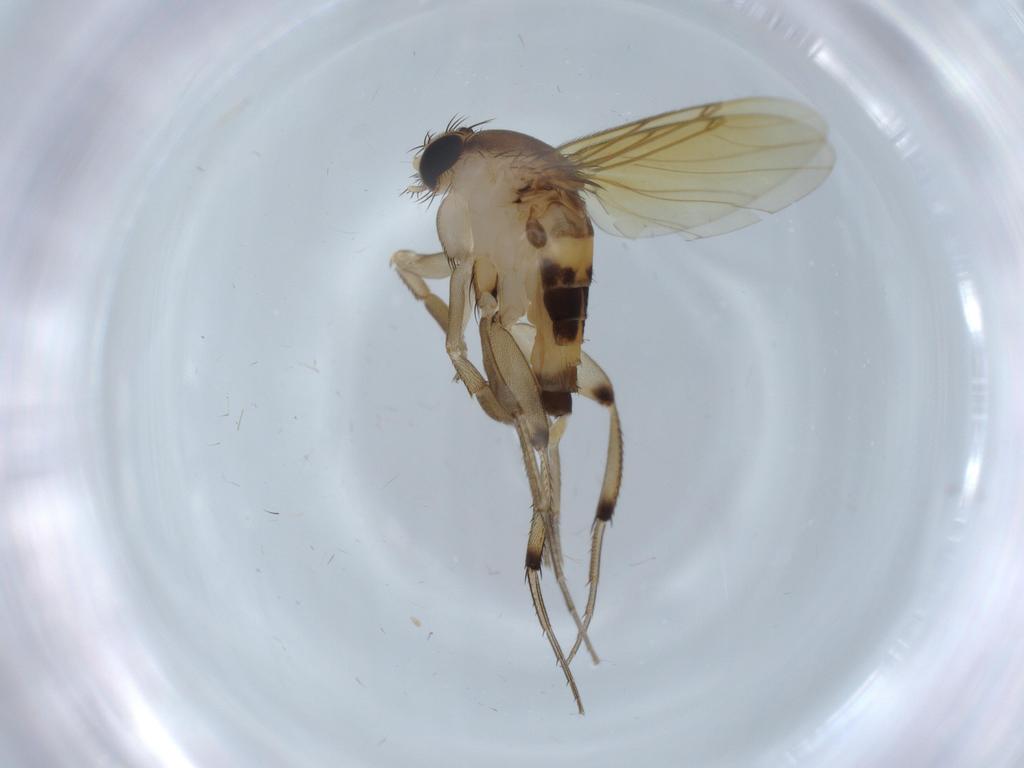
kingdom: Animalia
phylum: Arthropoda
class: Insecta
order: Diptera
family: Phoridae
